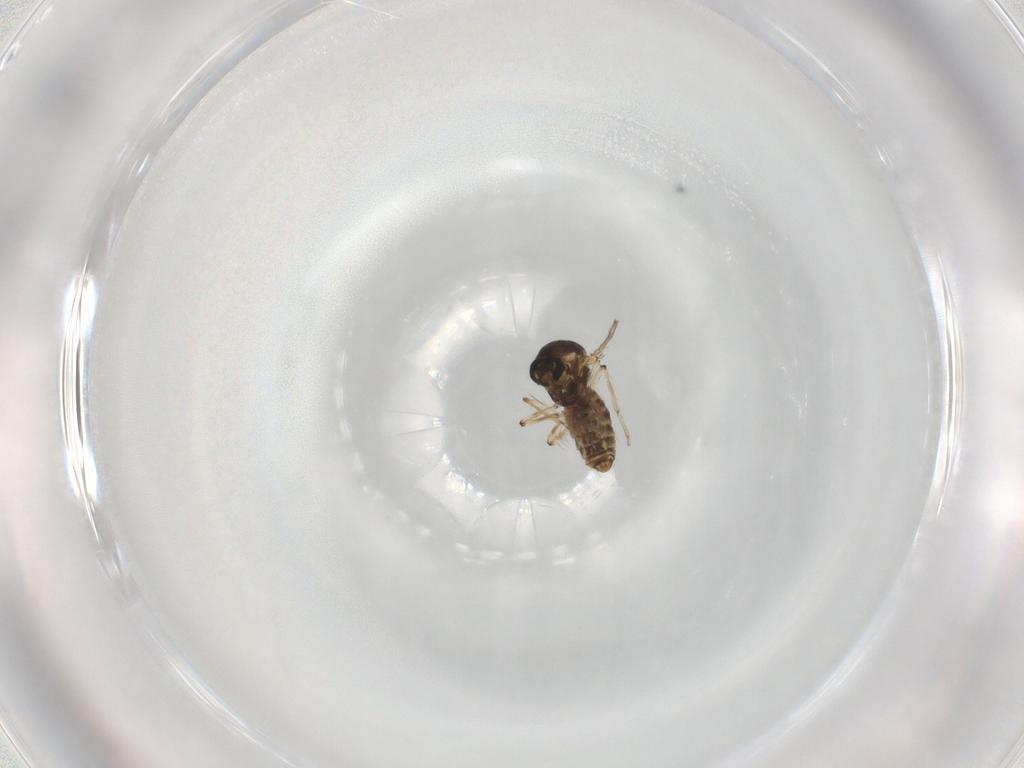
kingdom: Animalia
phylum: Arthropoda
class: Insecta
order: Diptera
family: Ceratopogonidae
